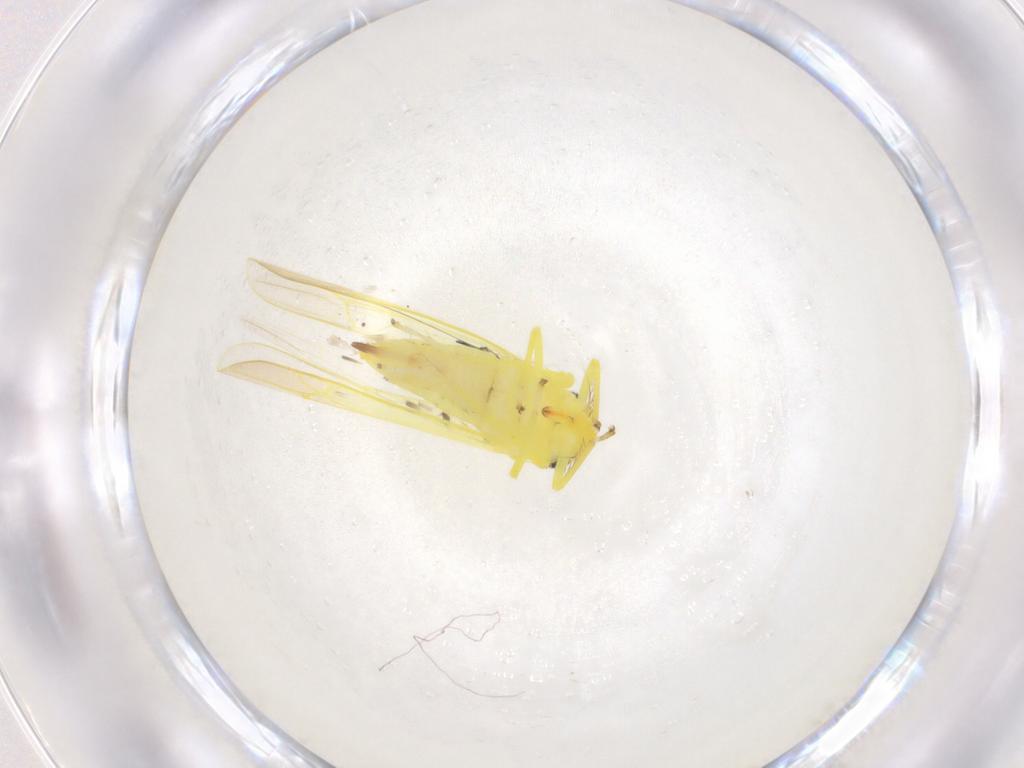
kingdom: Animalia
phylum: Arthropoda
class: Insecta
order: Hemiptera
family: Cicadellidae
